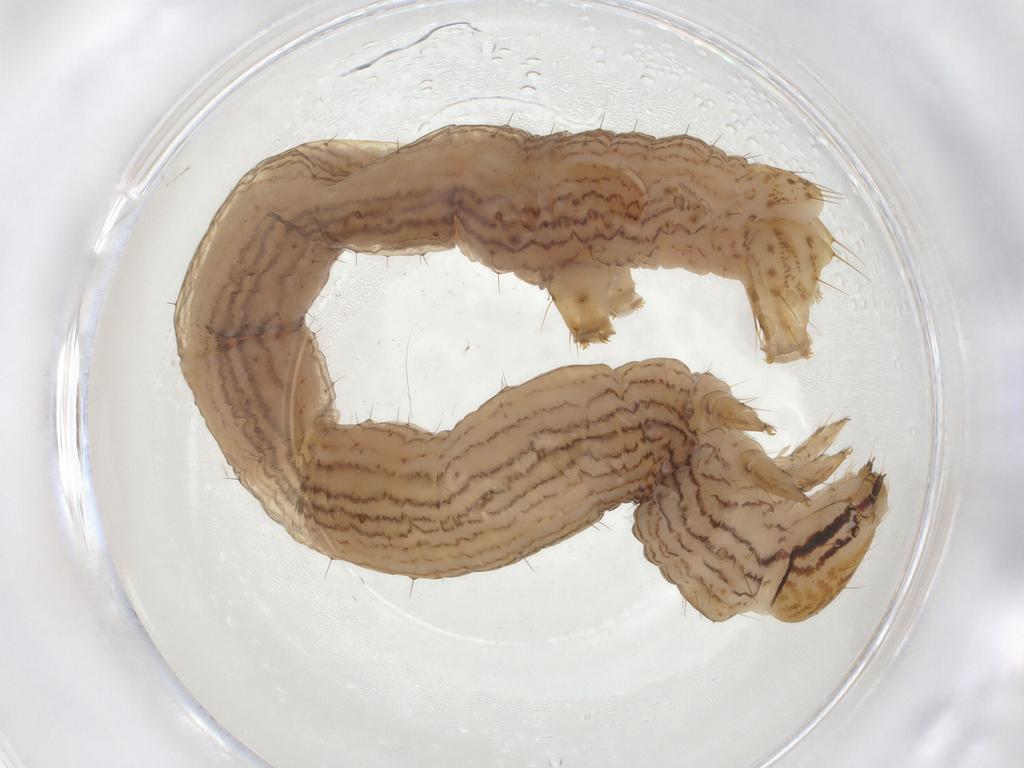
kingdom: Animalia
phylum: Arthropoda
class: Insecta
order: Lepidoptera
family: Geometridae
